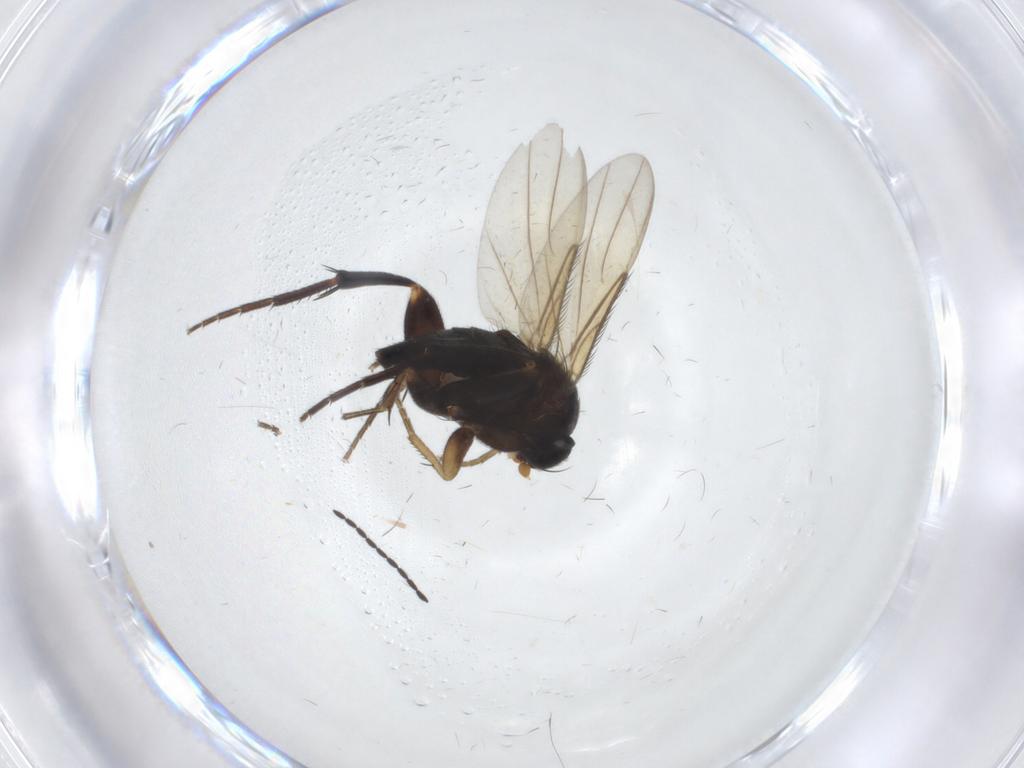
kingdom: Animalia
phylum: Arthropoda
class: Insecta
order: Diptera
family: Phoridae
